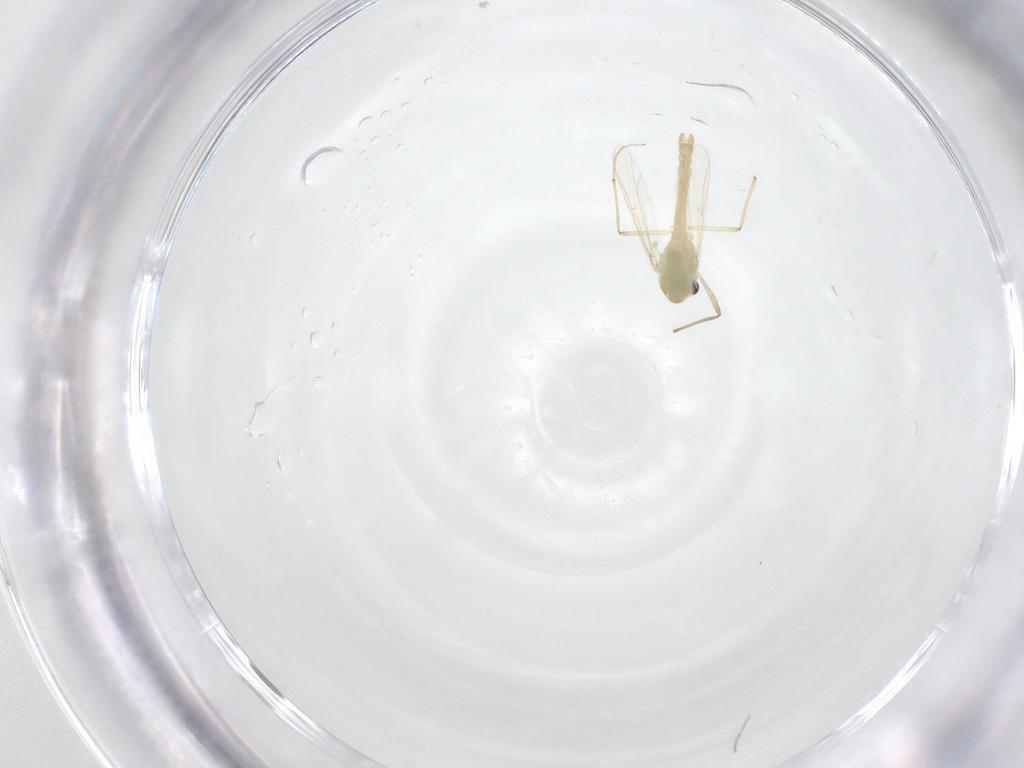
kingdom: Animalia
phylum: Arthropoda
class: Insecta
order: Diptera
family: Chironomidae
